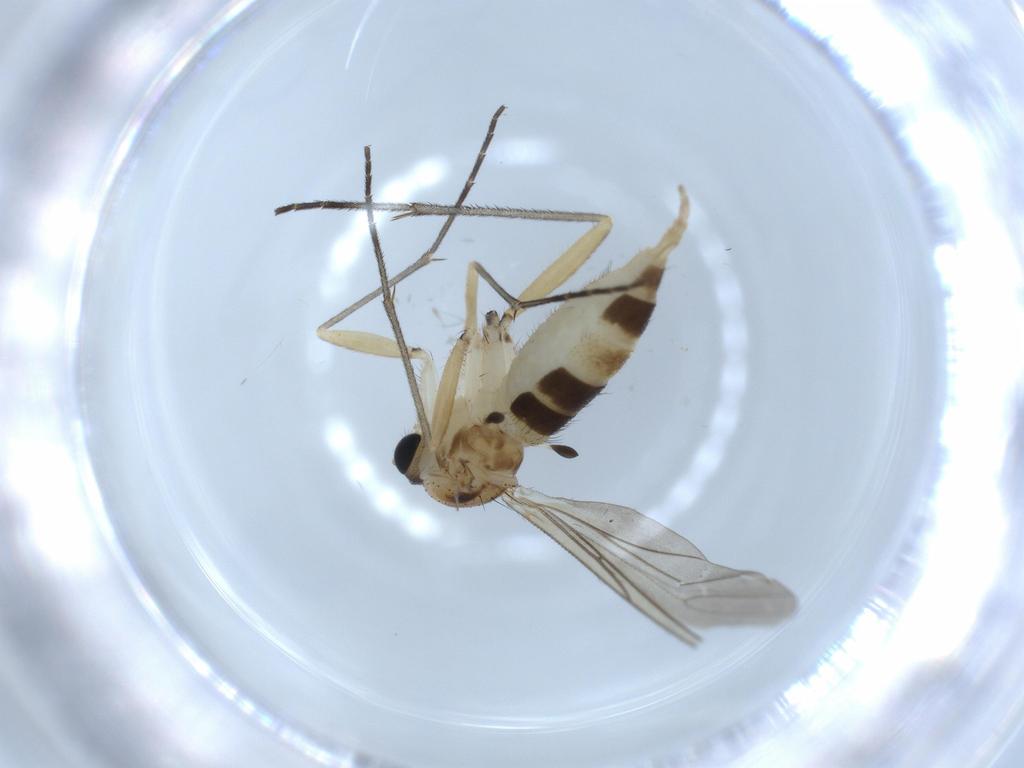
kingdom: Animalia
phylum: Arthropoda
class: Insecta
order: Diptera
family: Sciaridae
